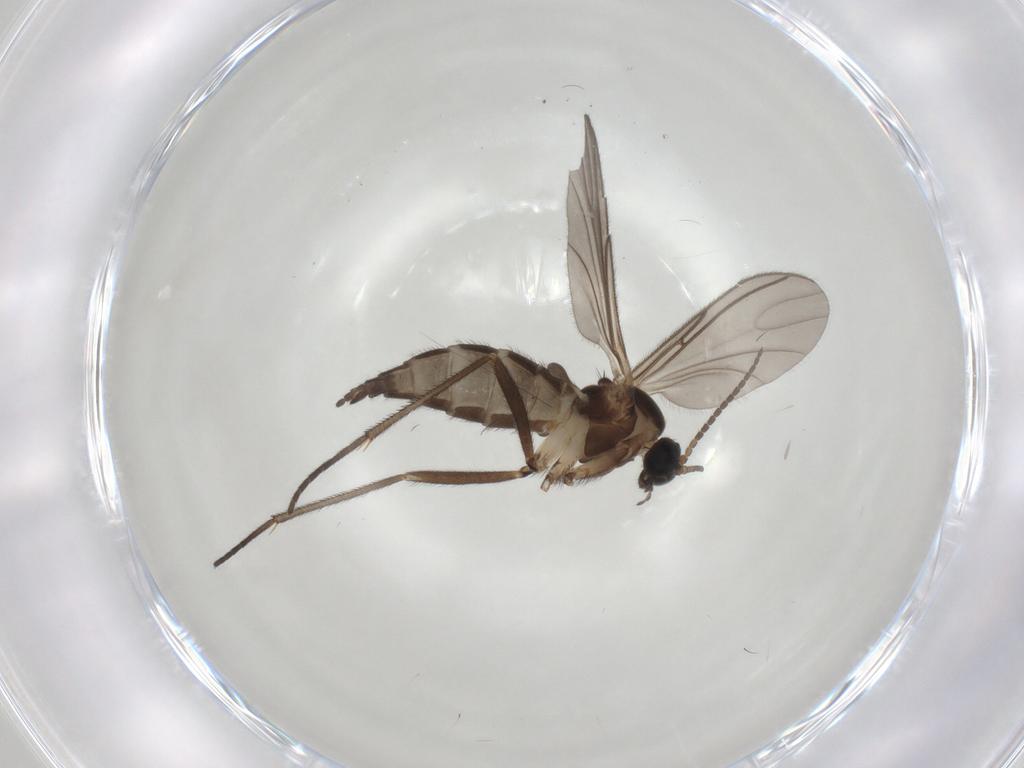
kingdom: Animalia
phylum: Arthropoda
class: Insecta
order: Diptera
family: Sciaridae
